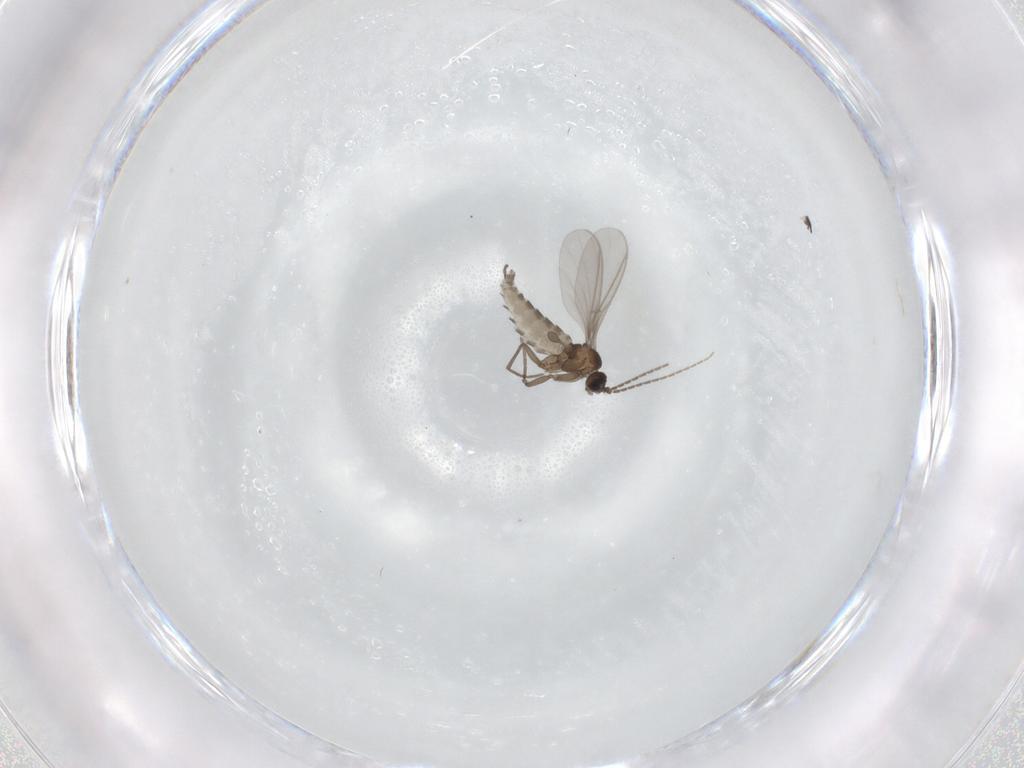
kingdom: Animalia
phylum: Arthropoda
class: Insecta
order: Diptera
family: Sciaridae
